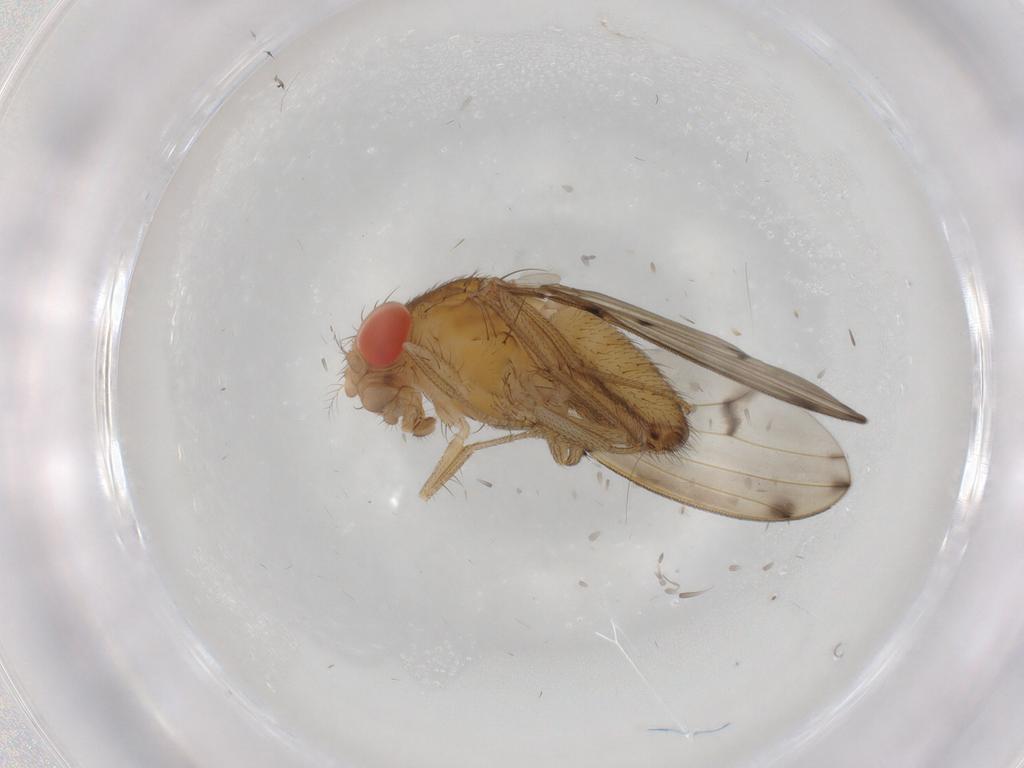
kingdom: Animalia
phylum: Arthropoda
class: Insecta
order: Diptera
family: Drosophilidae
